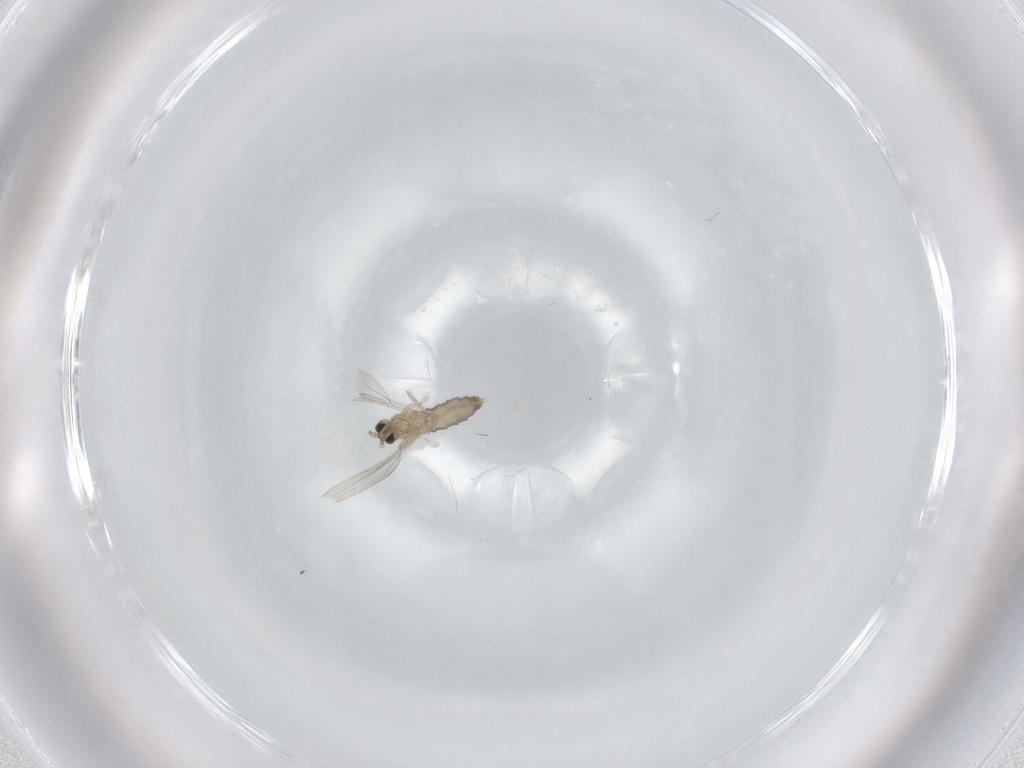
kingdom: Animalia
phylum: Arthropoda
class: Insecta
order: Diptera
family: Cecidomyiidae
